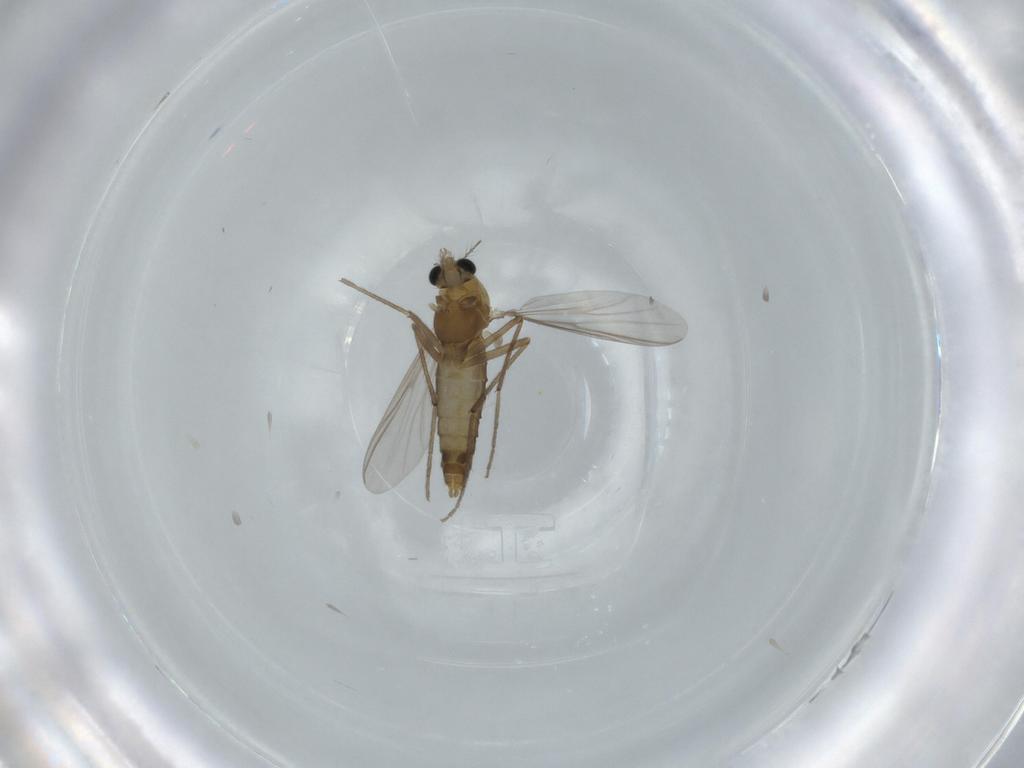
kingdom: Animalia
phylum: Arthropoda
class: Insecta
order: Diptera
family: Chironomidae
